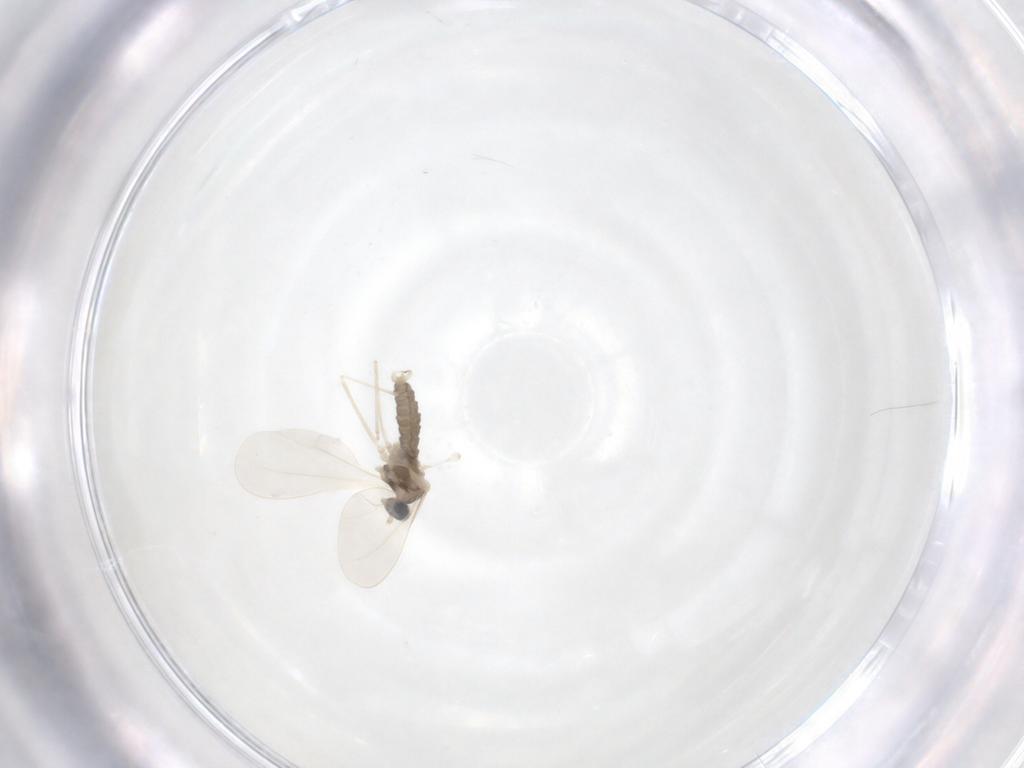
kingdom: Animalia
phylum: Arthropoda
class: Insecta
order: Diptera
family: Cecidomyiidae
